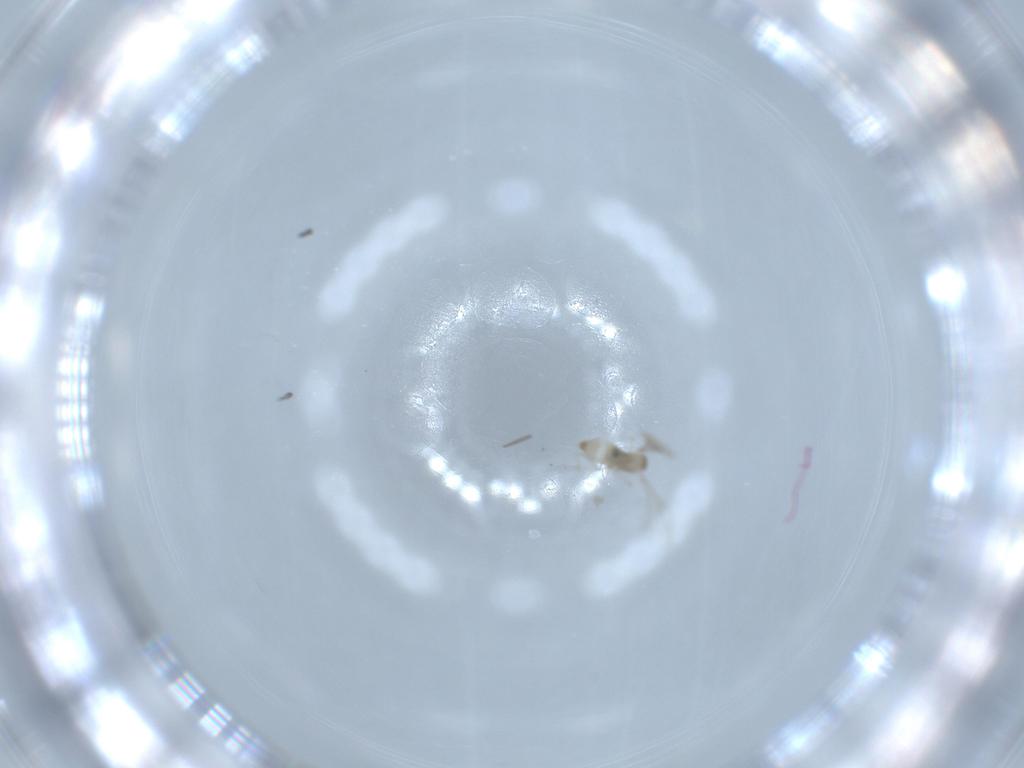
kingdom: Animalia
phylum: Arthropoda
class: Insecta
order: Diptera
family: Cecidomyiidae
